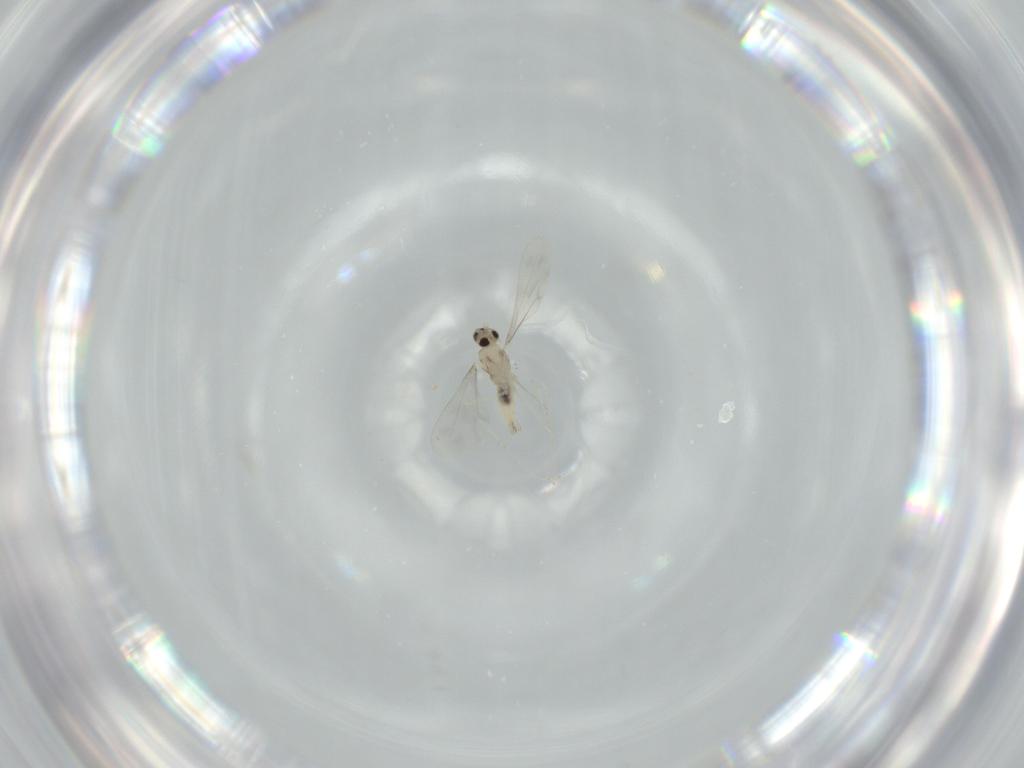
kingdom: Animalia
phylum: Arthropoda
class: Insecta
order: Diptera
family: Cecidomyiidae
